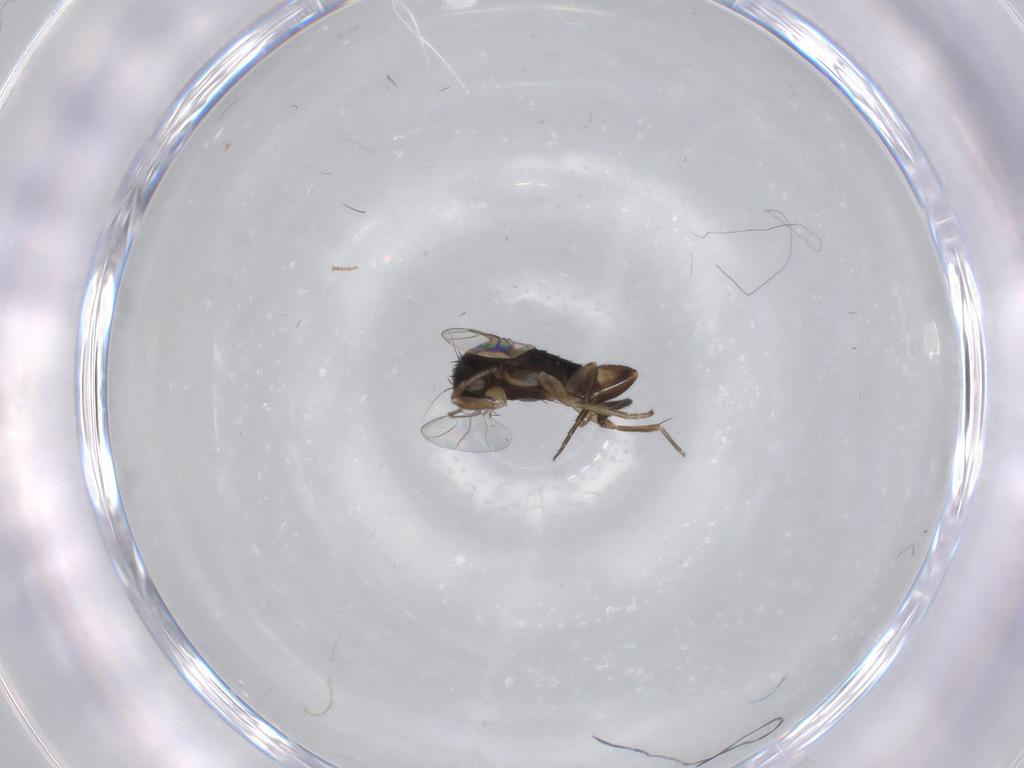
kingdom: Animalia
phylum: Arthropoda
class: Insecta
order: Diptera
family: Phoridae
